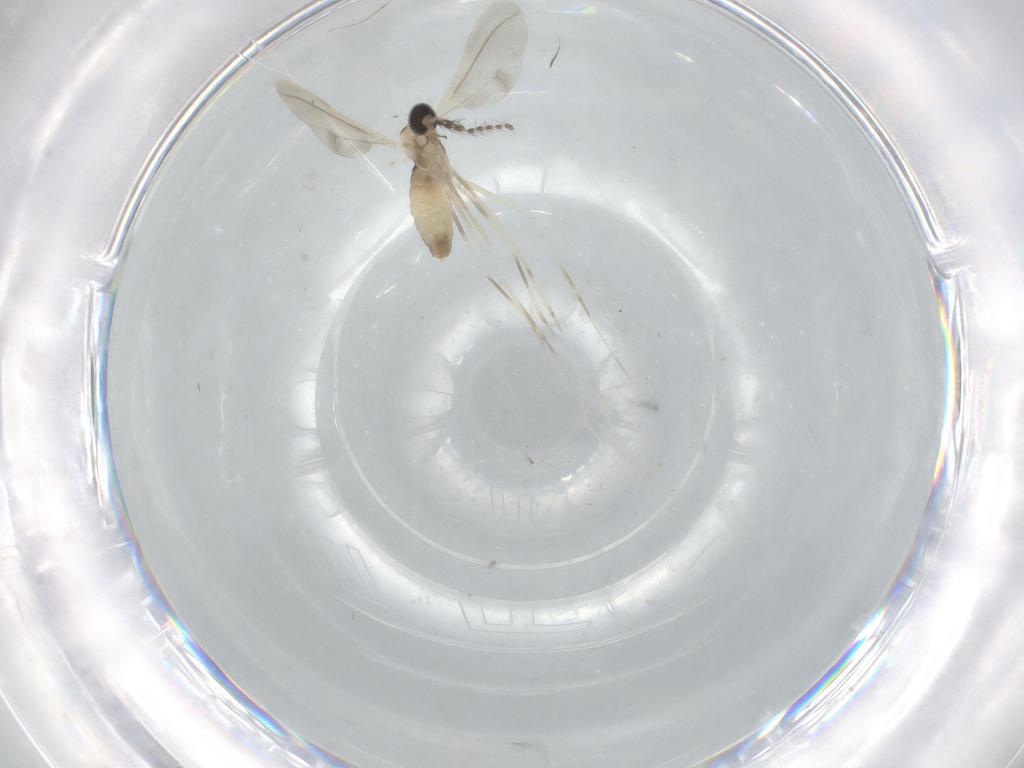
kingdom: Animalia
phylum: Arthropoda
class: Insecta
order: Diptera
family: Cecidomyiidae
